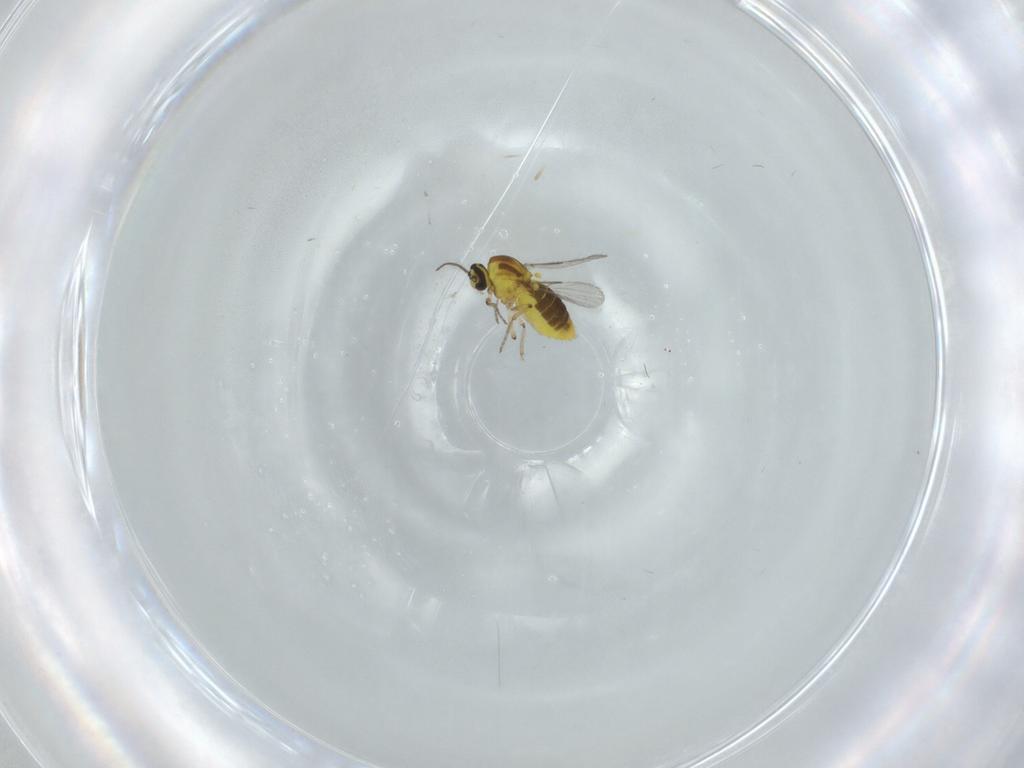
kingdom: Animalia
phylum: Arthropoda
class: Insecta
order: Diptera
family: Ceratopogonidae
